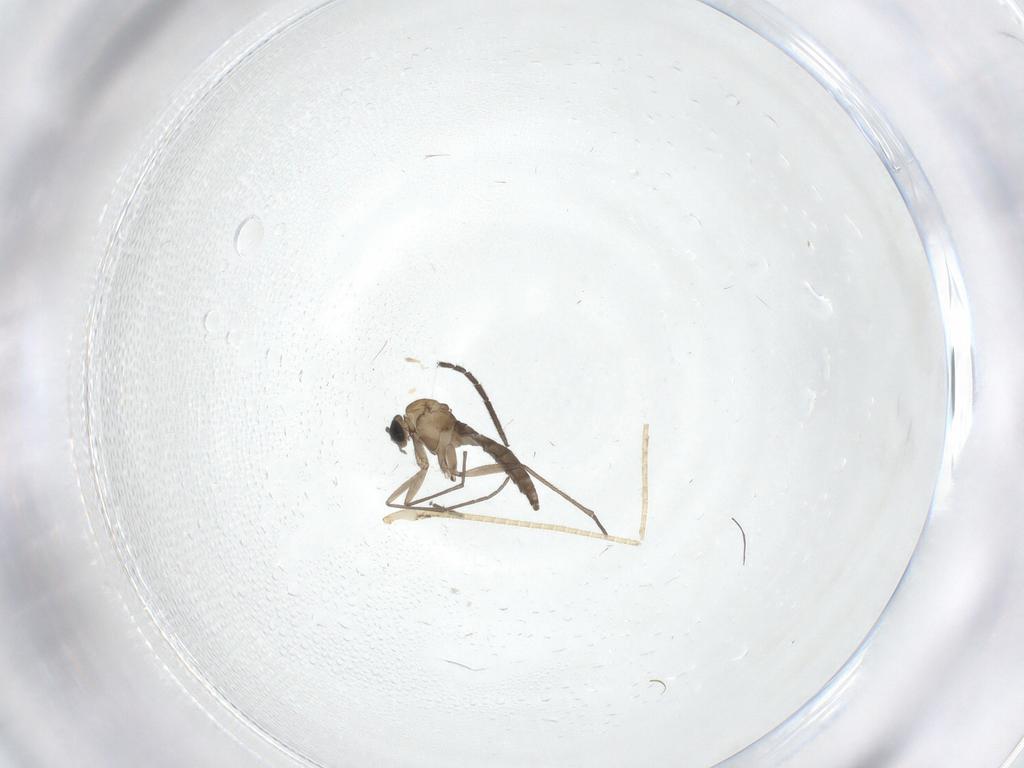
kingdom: Animalia
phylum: Arthropoda
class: Insecta
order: Diptera
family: Sciaridae
